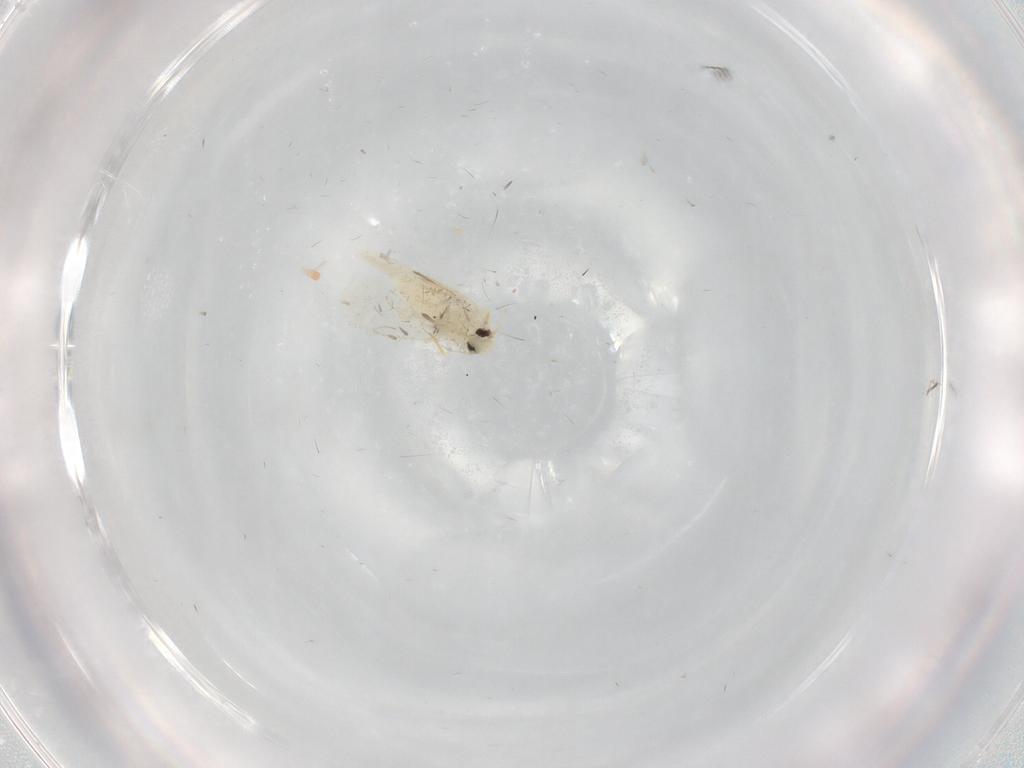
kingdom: Animalia
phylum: Arthropoda
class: Insecta
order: Hemiptera
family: Aleyrodidae
